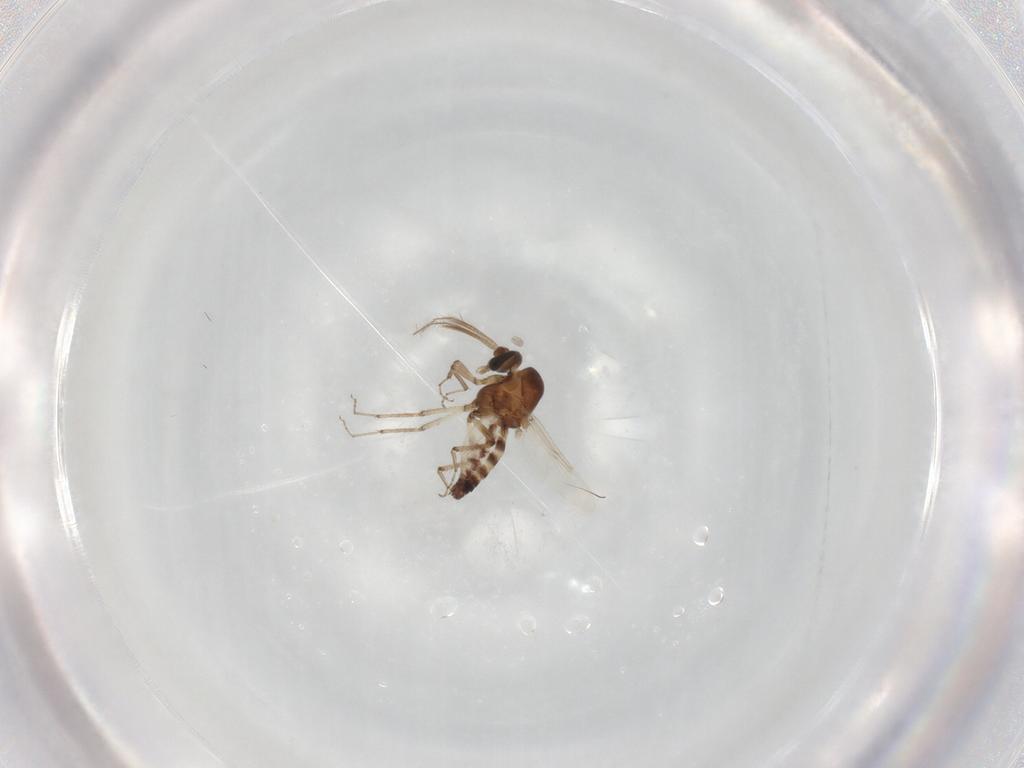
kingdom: Animalia
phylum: Arthropoda
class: Insecta
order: Diptera
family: Ceratopogonidae
